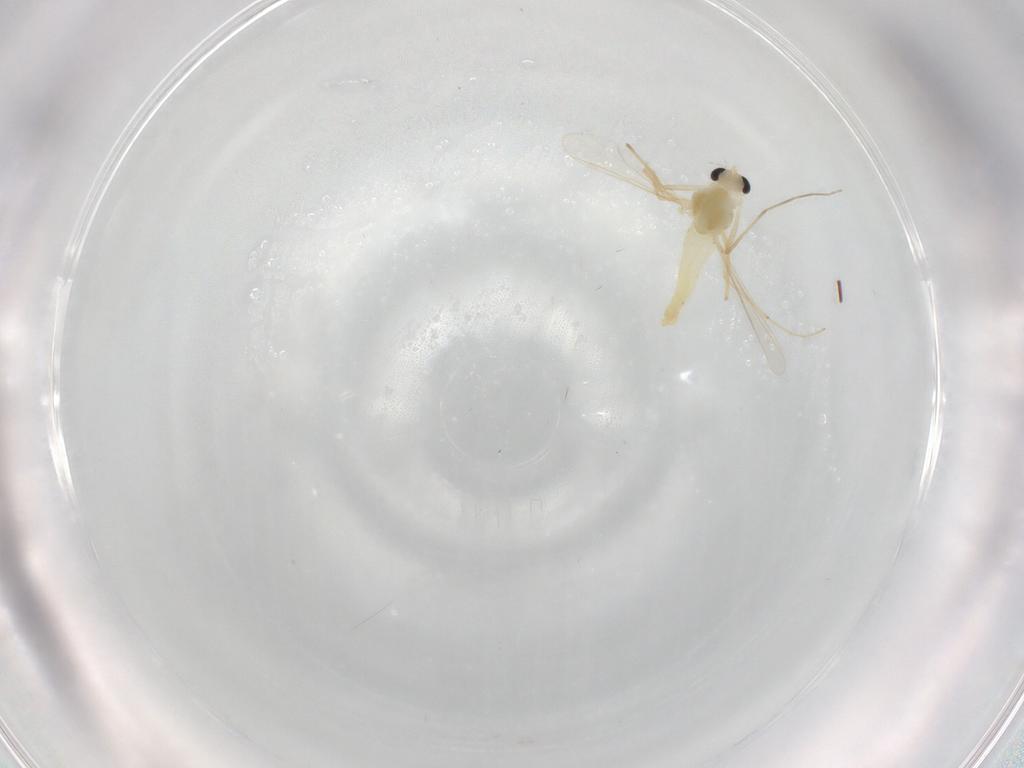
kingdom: Animalia
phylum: Arthropoda
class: Insecta
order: Diptera
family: Chironomidae
